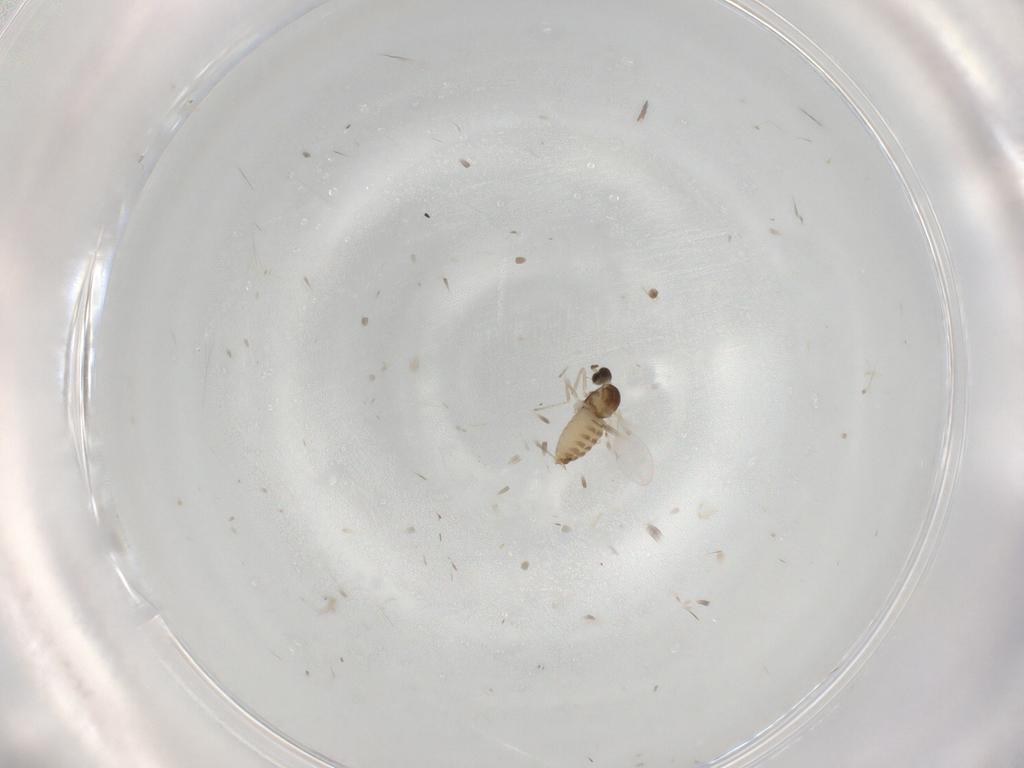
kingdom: Animalia
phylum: Arthropoda
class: Insecta
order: Diptera
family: Cecidomyiidae
